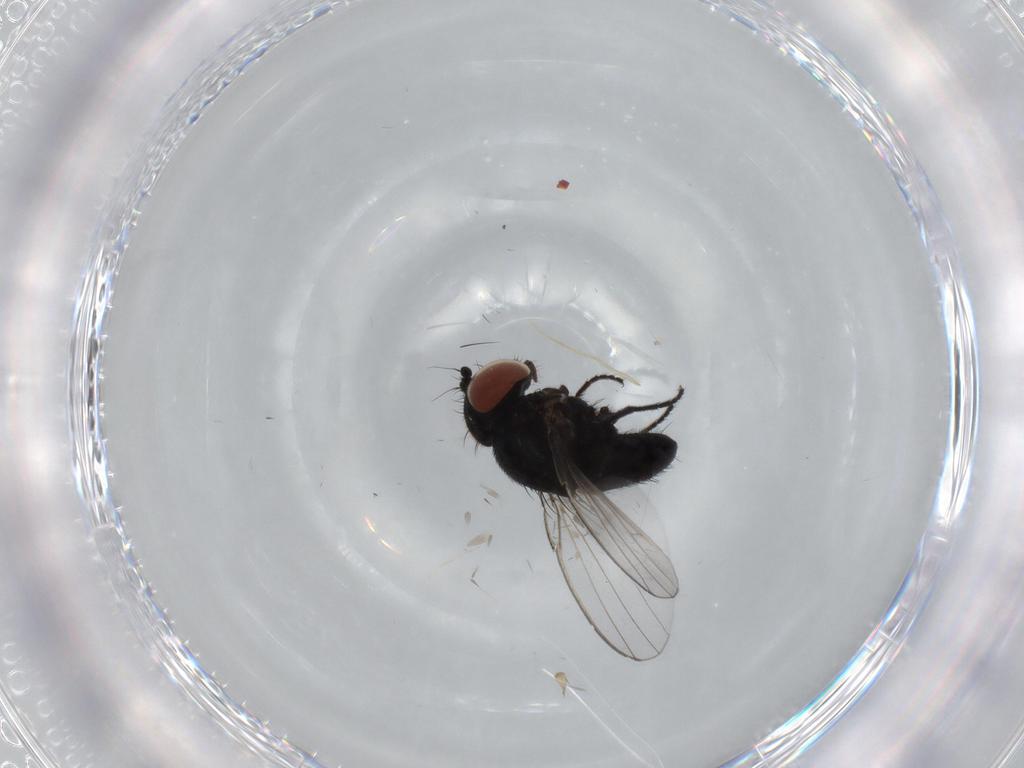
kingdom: Animalia
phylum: Arthropoda
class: Insecta
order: Diptera
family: Milichiidae
